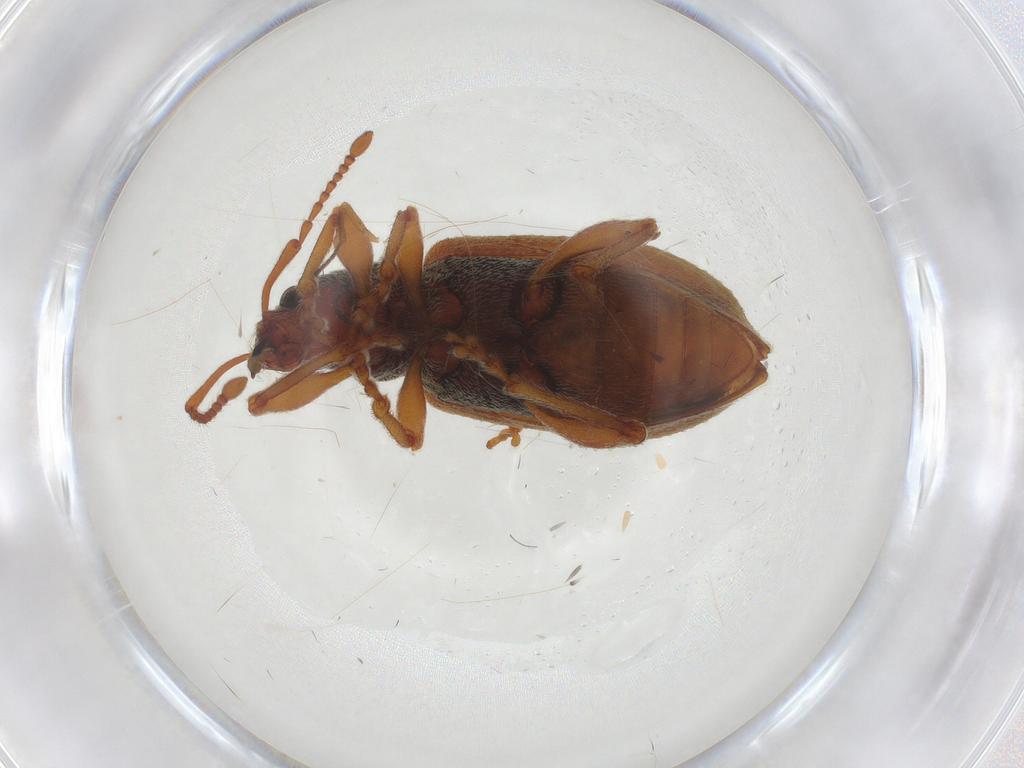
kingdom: Animalia
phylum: Arthropoda
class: Insecta
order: Coleoptera
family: Curculionidae
